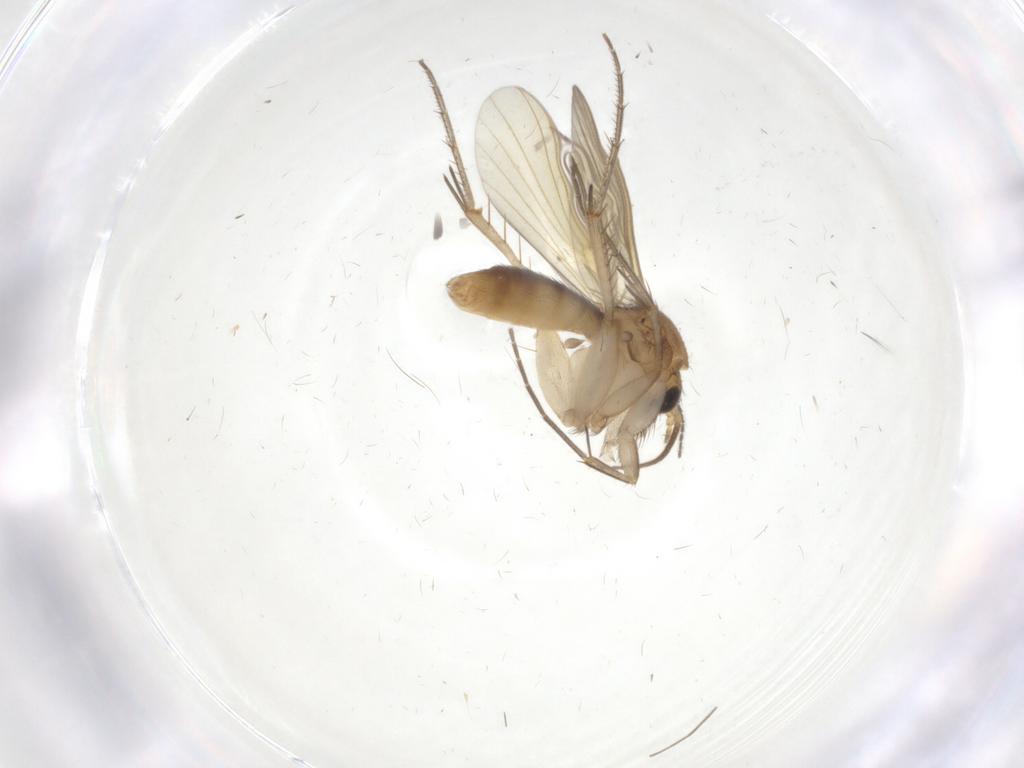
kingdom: Animalia
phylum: Arthropoda
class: Insecta
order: Diptera
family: Mycetophilidae
